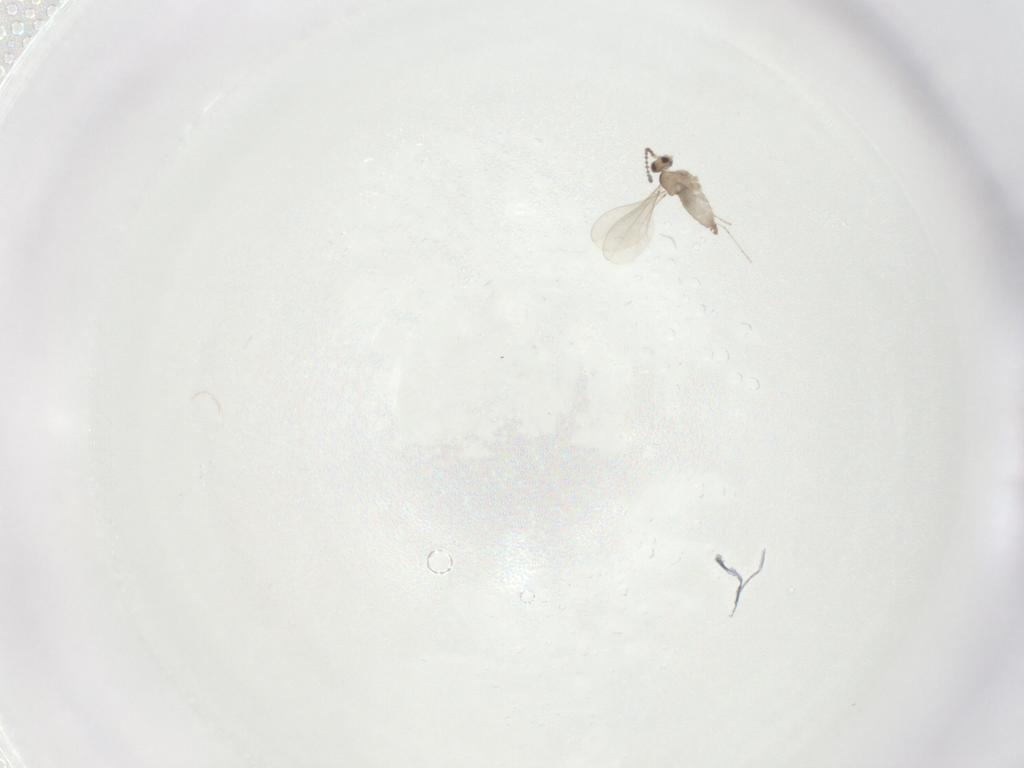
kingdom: Animalia
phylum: Arthropoda
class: Insecta
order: Diptera
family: Cecidomyiidae
